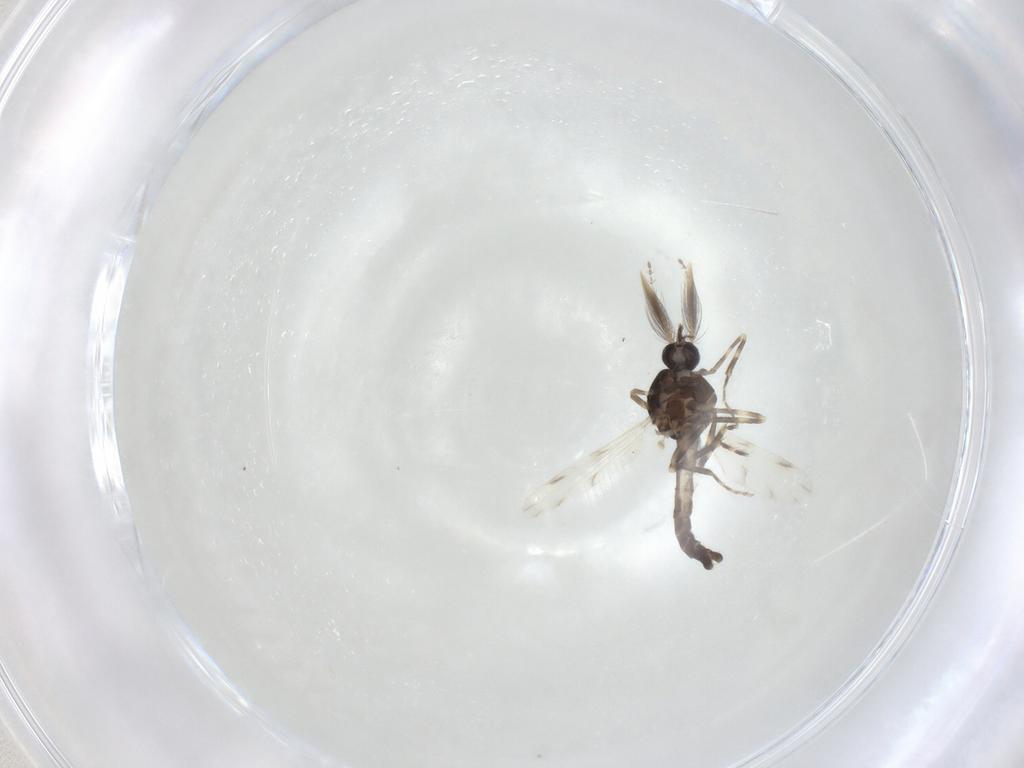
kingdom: Animalia
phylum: Arthropoda
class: Insecta
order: Diptera
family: Ceratopogonidae
